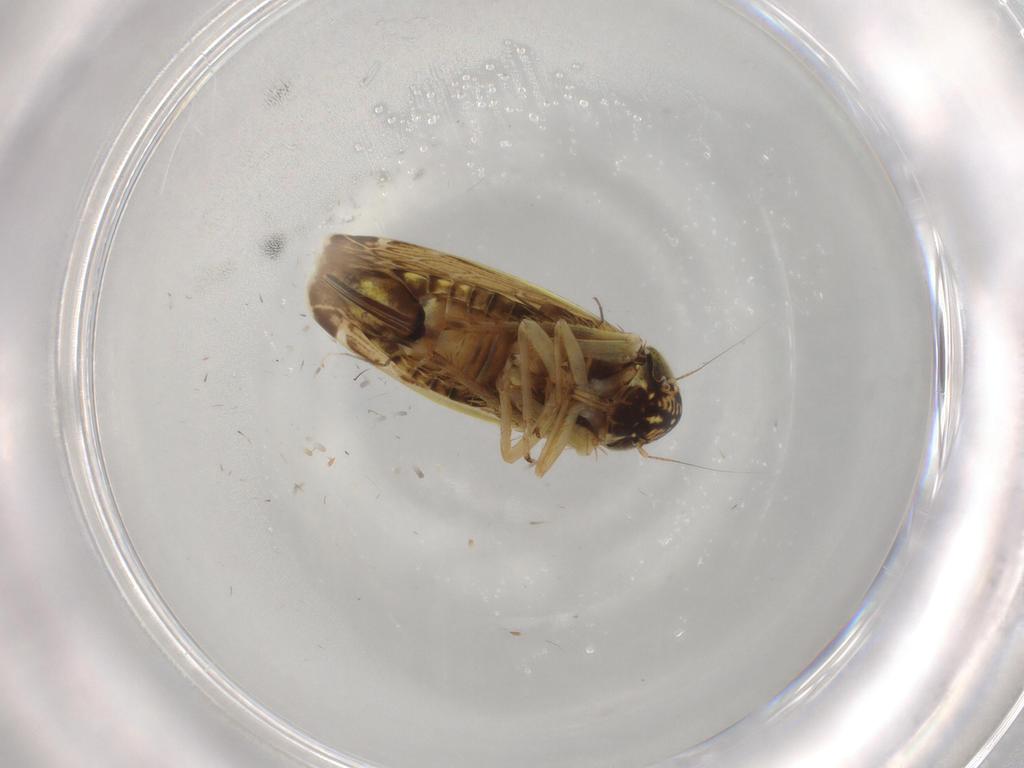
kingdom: Animalia
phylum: Arthropoda
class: Insecta
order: Hemiptera
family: Cicadellidae
